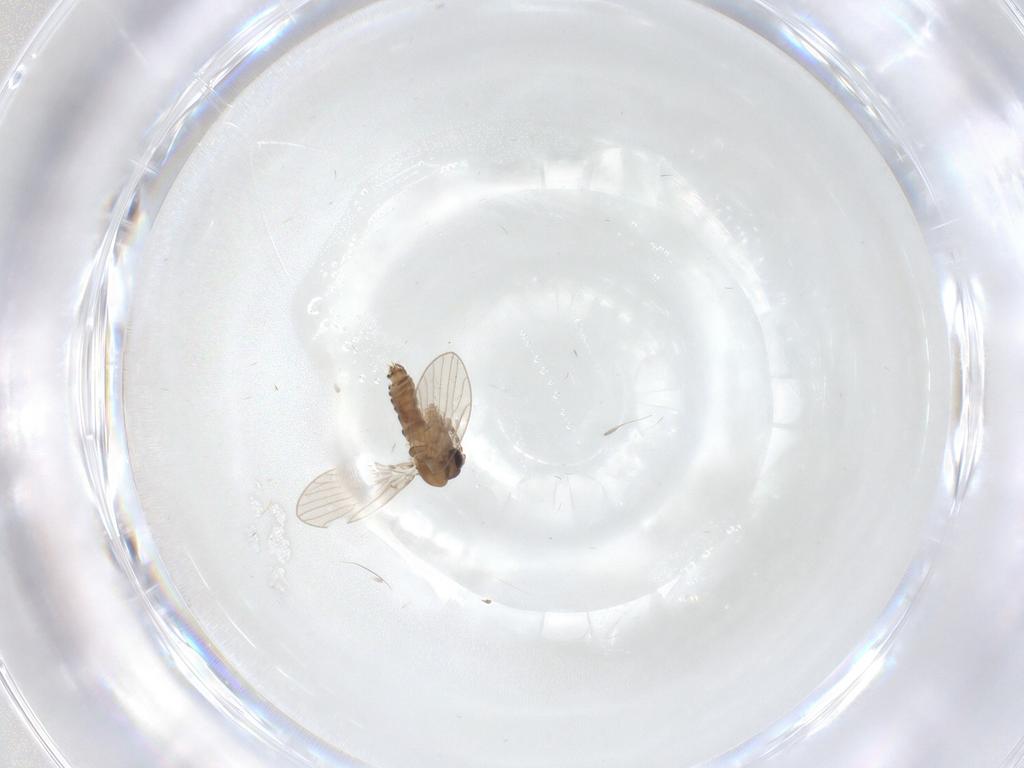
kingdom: Animalia
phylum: Arthropoda
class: Insecta
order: Diptera
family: Psychodidae
